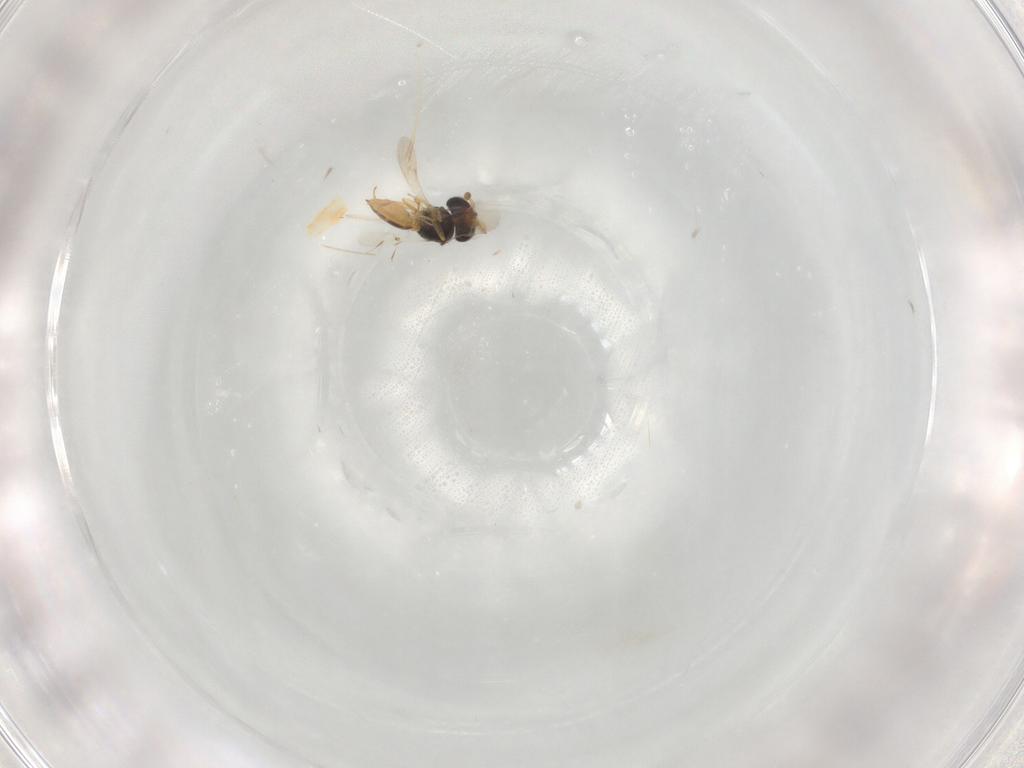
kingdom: Animalia
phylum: Arthropoda
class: Insecta
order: Hymenoptera
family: Scelionidae
